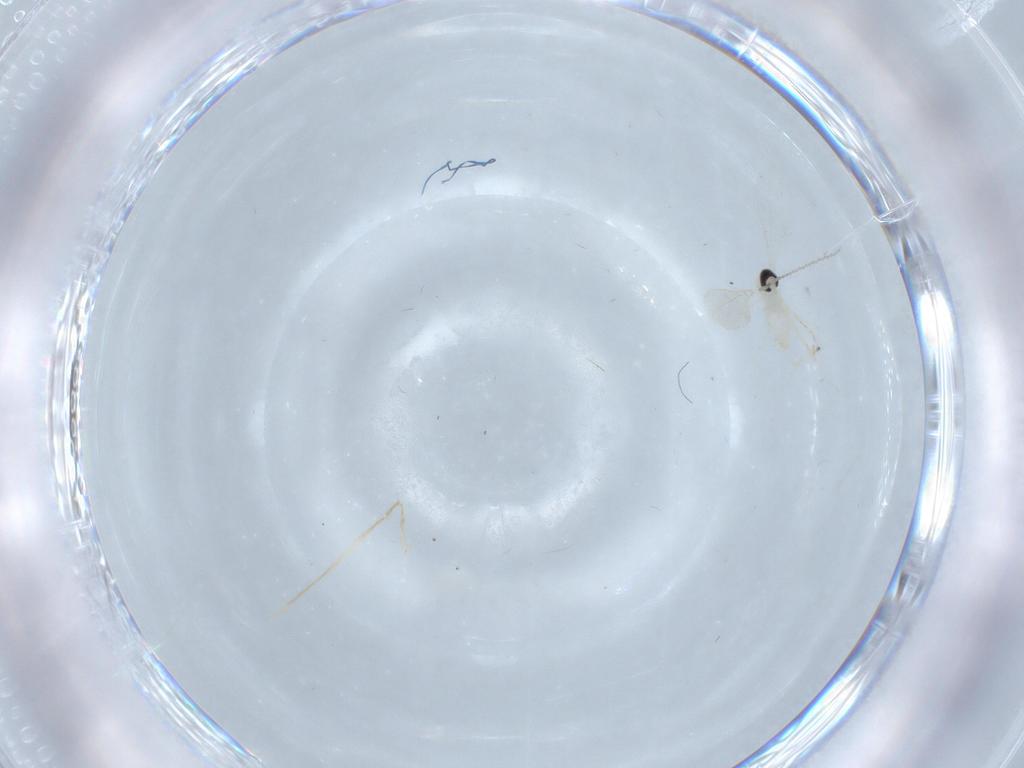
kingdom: Animalia
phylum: Arthropoda
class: Insecta
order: Diptera
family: Cecidomyiidae
